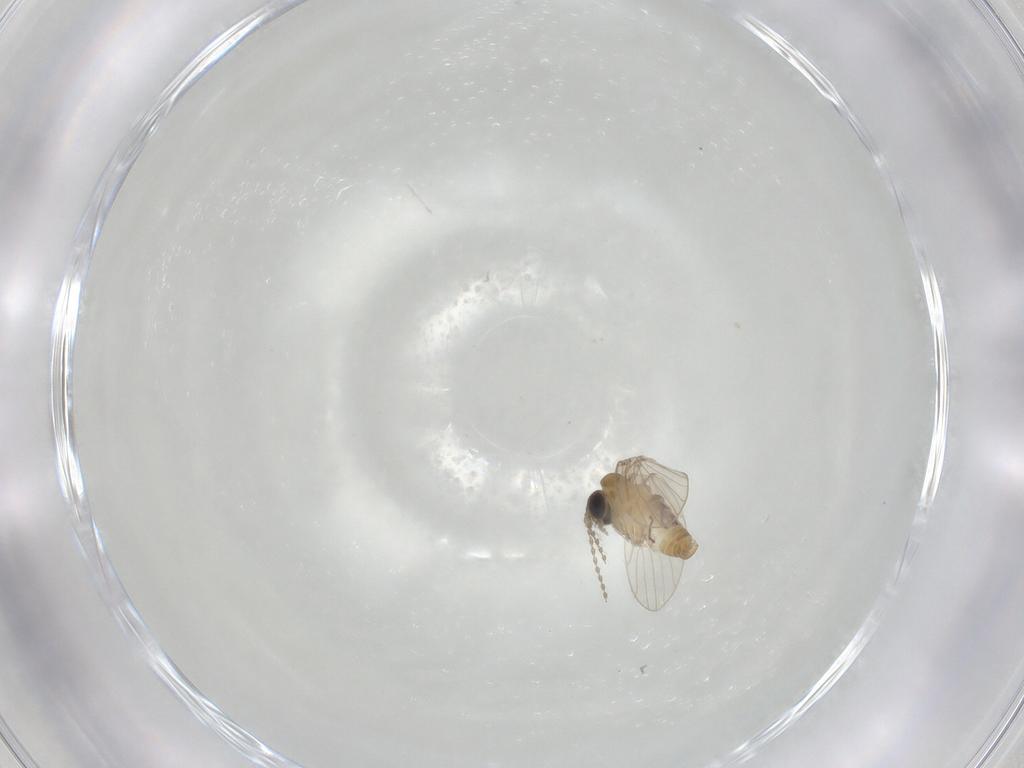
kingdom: Animalia
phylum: Arthropoda
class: Insecta
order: Diptera
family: Psychodidae
